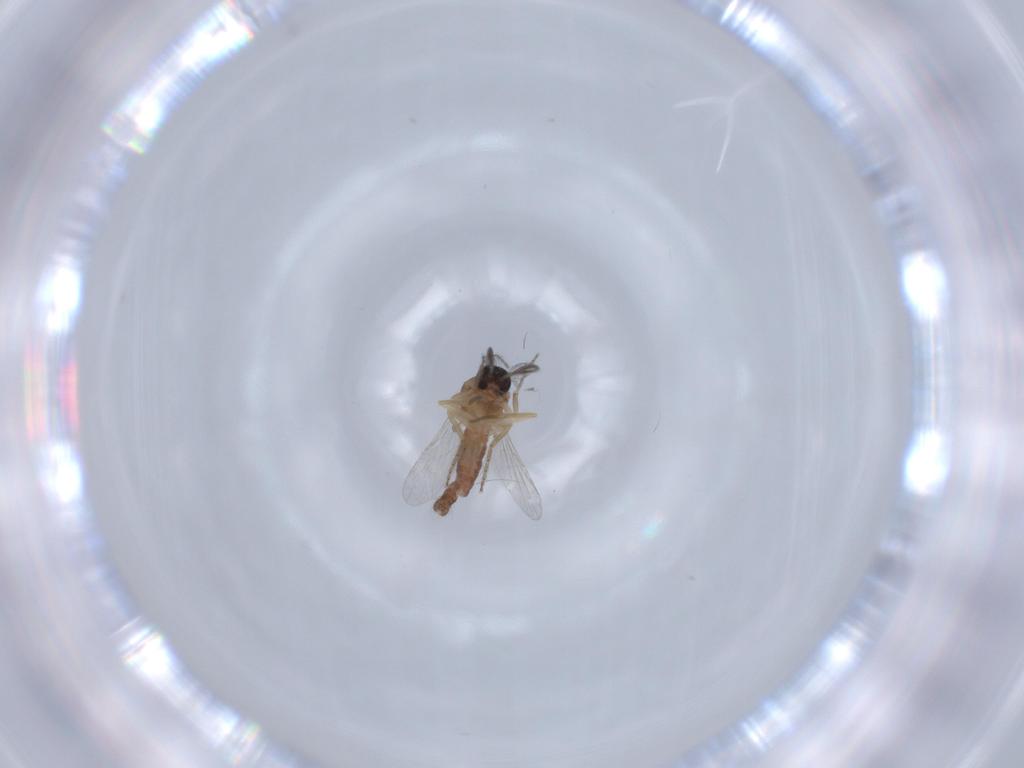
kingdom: Animalia
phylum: Arthropoda
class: Insecta
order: Diptera
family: Ceratopogonidae
